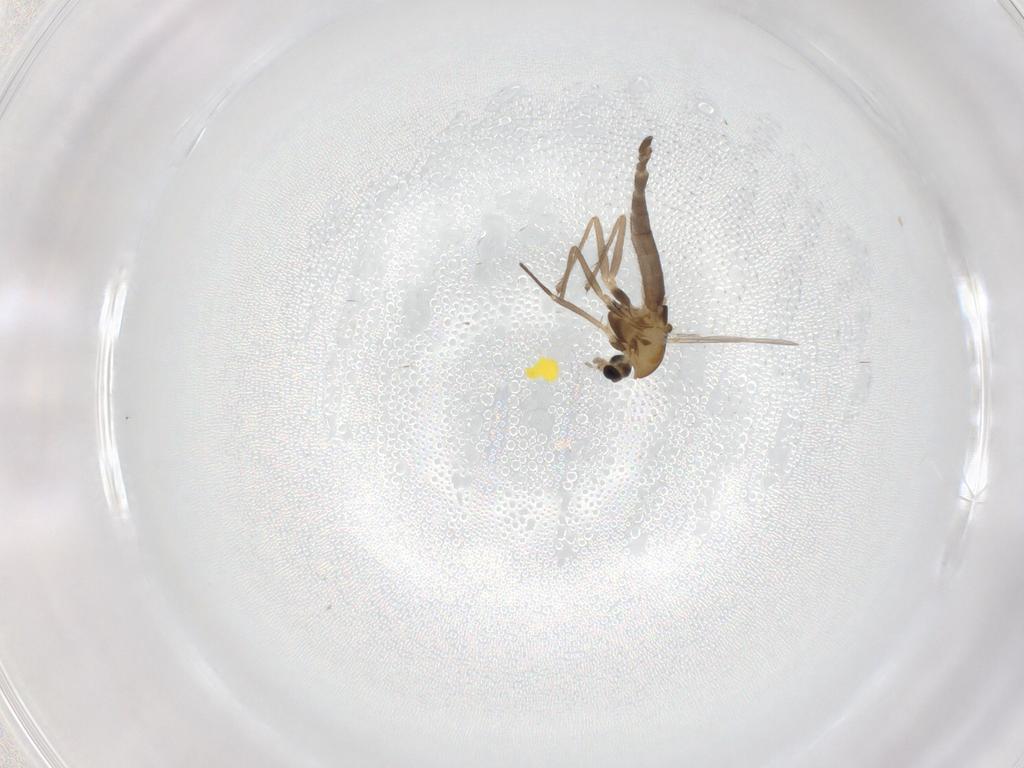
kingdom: Animalia
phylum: Arthropoda
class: Insecta
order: Diptera
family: Chironomidae
